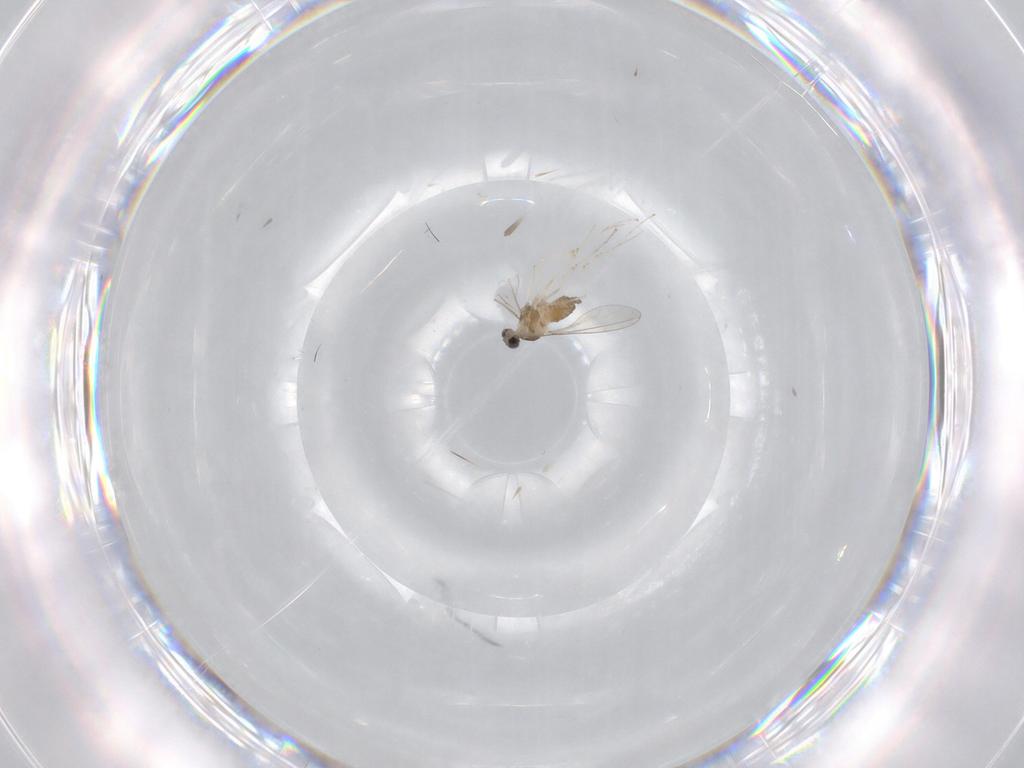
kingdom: Animalia
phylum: Arthropoda
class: Insecta
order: Diptera
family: Cecidomyiidae
